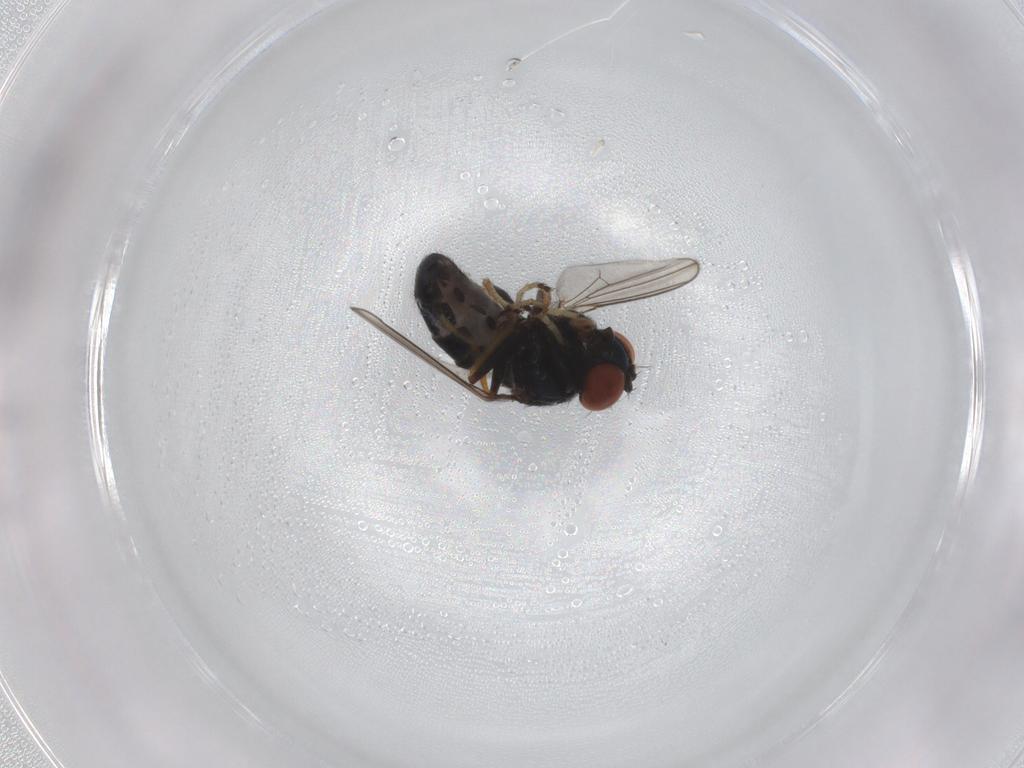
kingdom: Animalia
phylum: Arthropoda
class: Insecta
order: Diptera
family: Ephydridae
